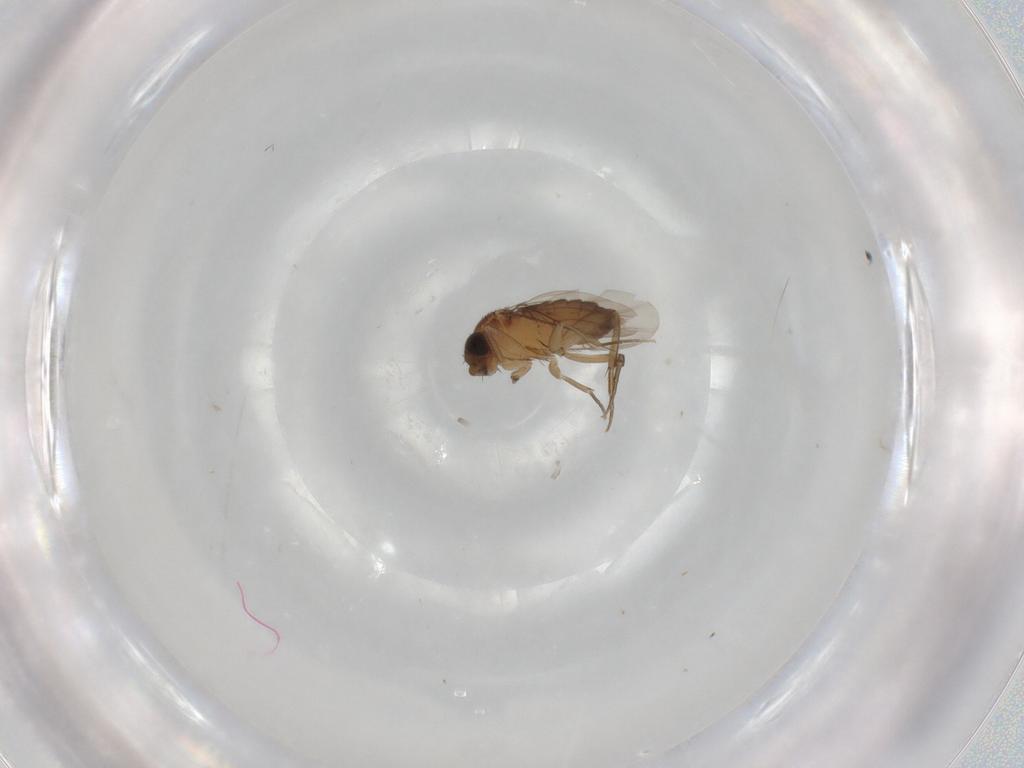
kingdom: Animalia
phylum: Arthropoda
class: Insecta
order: Diptera
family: Phoridae
